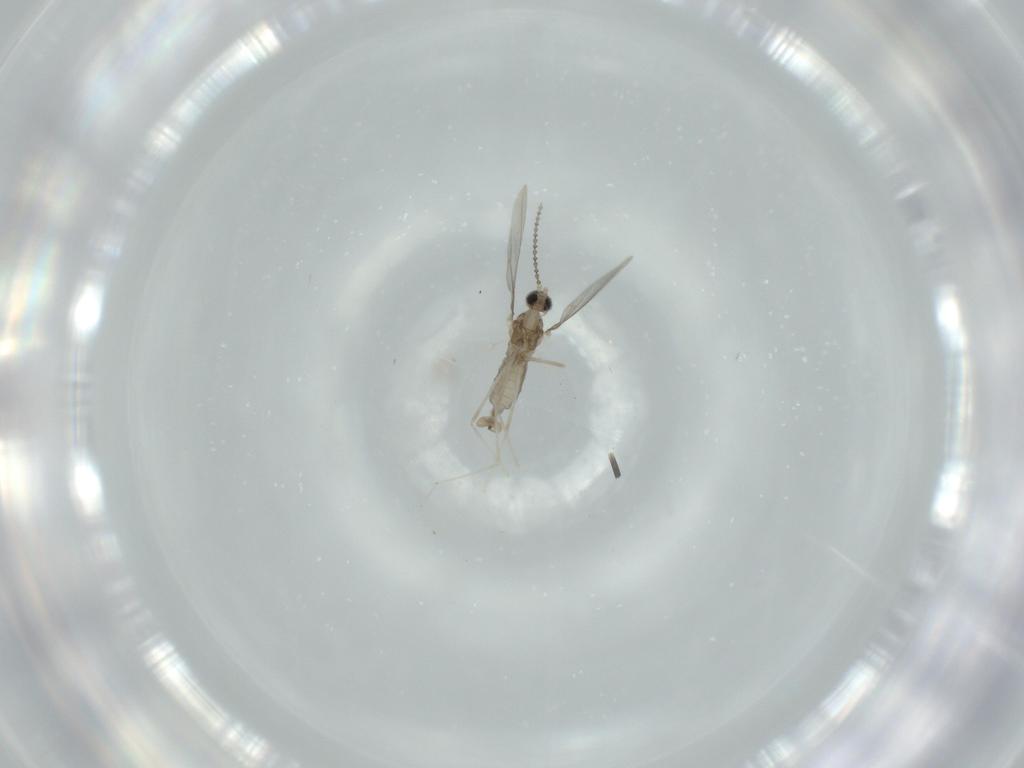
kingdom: Animalia
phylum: Arthropoda
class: Insecta
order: Diptera
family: Cecidomyiidae
